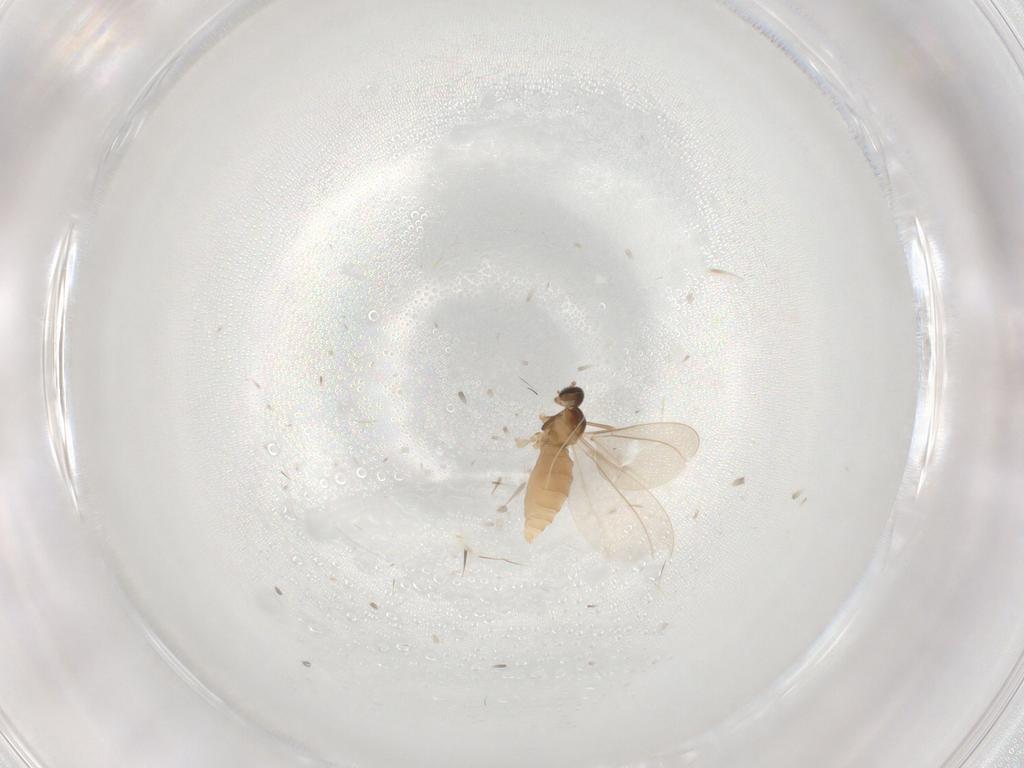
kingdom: Animalia
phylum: Arthropoda
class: Insecta
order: Diptera
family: Cecidomyiidae
